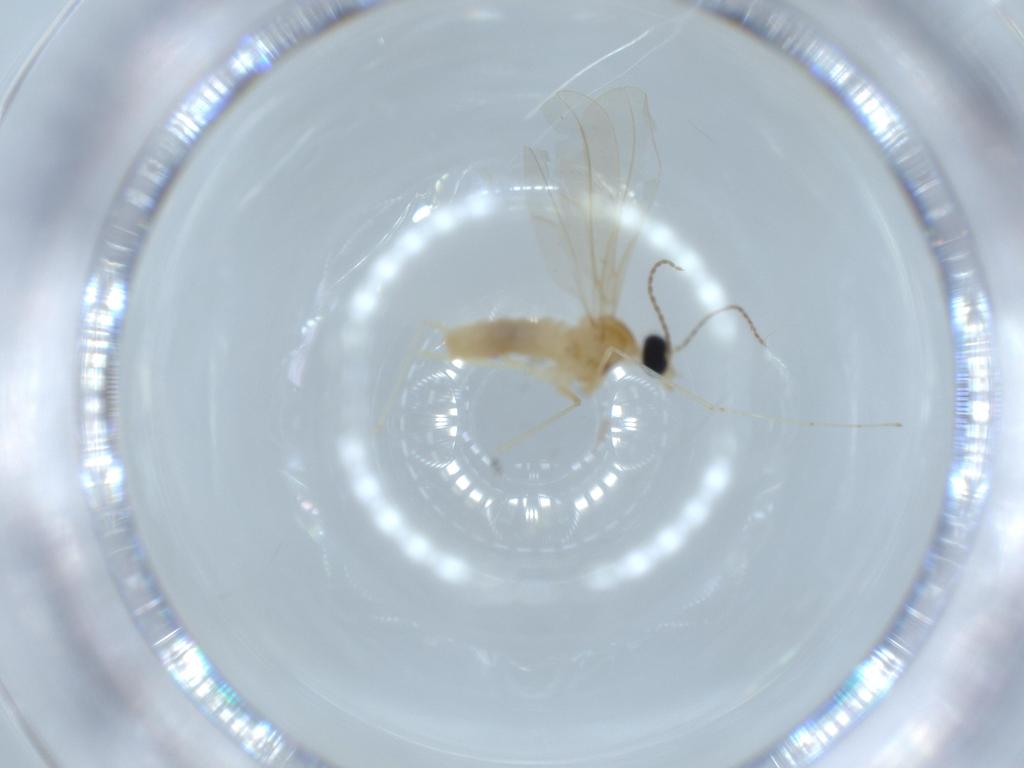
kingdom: Animalia
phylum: Arthropoda
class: Insecta
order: Diptera
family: Cecidomyiidae
